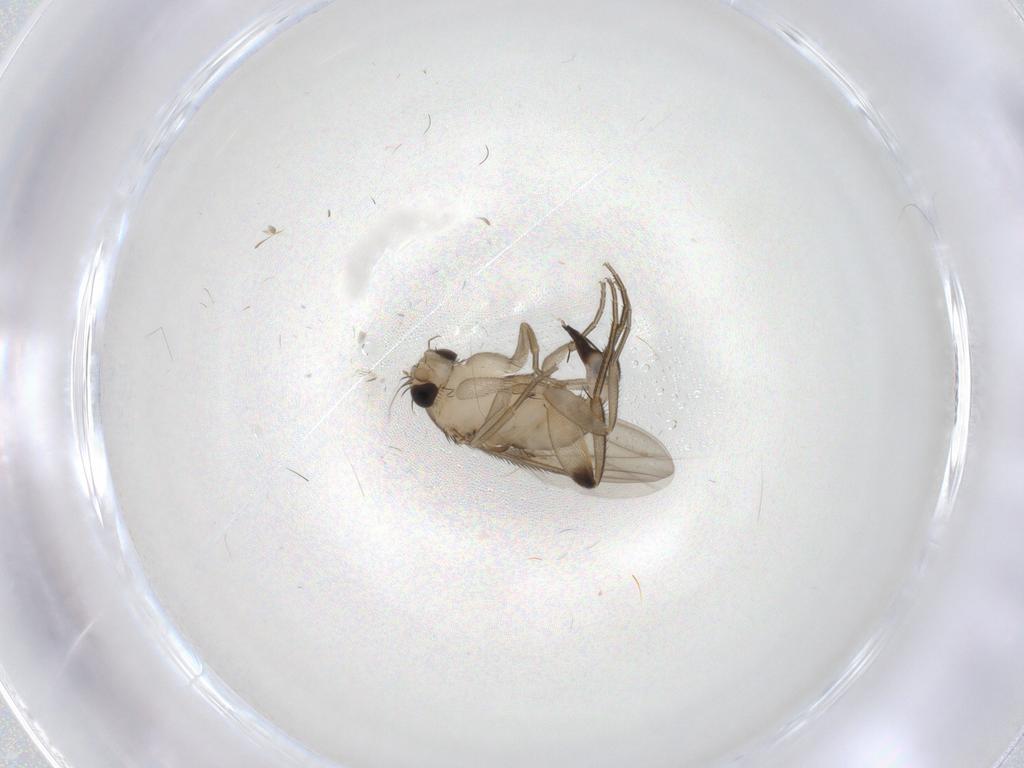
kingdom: Animalia
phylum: Arthropoda
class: Insecta
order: Diptera
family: Phoridae
